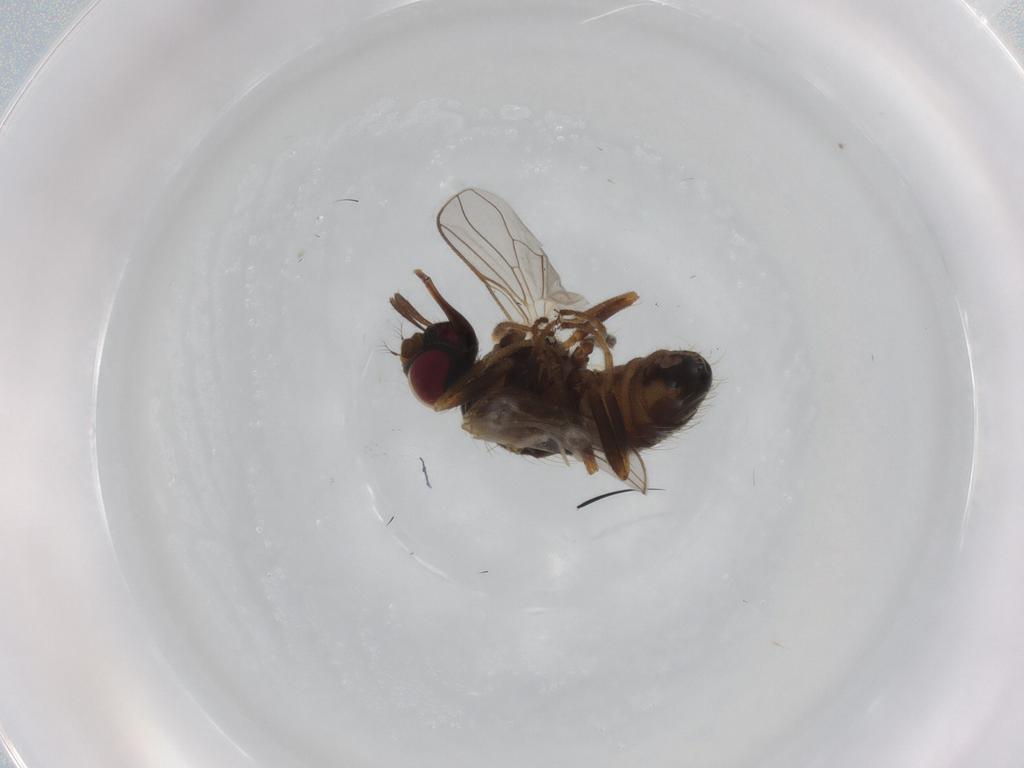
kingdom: Animalia
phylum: Arthropoda
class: Insecta
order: Diptera
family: Muscidae
